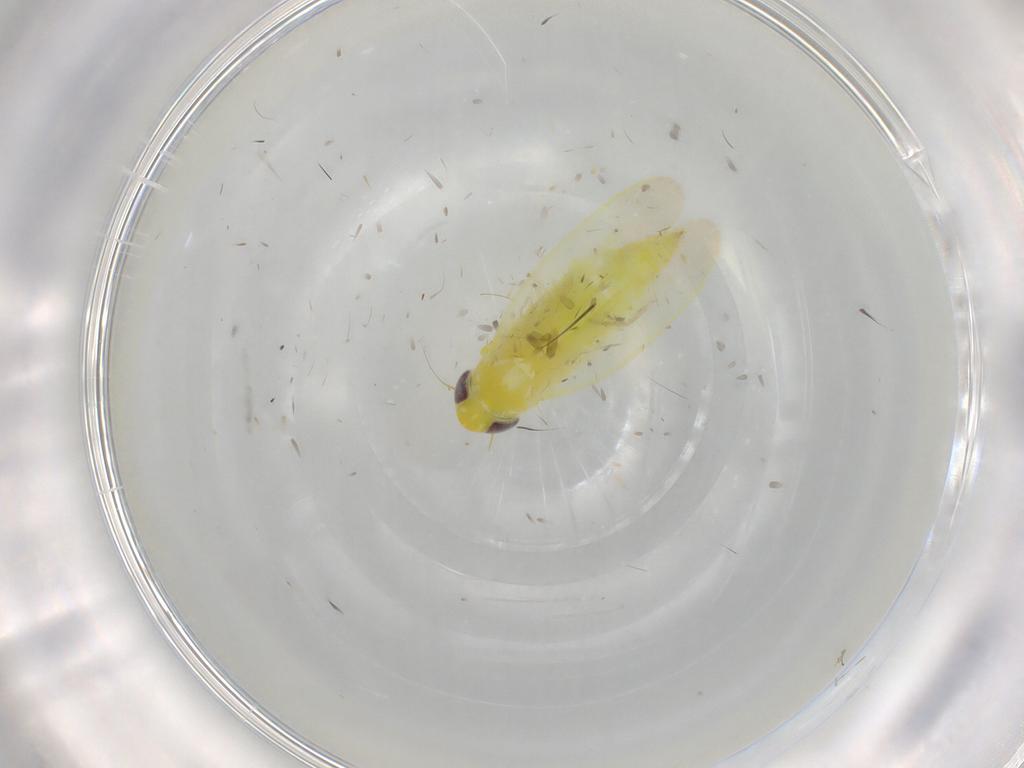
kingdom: Animalia
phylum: Arthropoda
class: Insecta
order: Hemiptera
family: Cicadellidae
